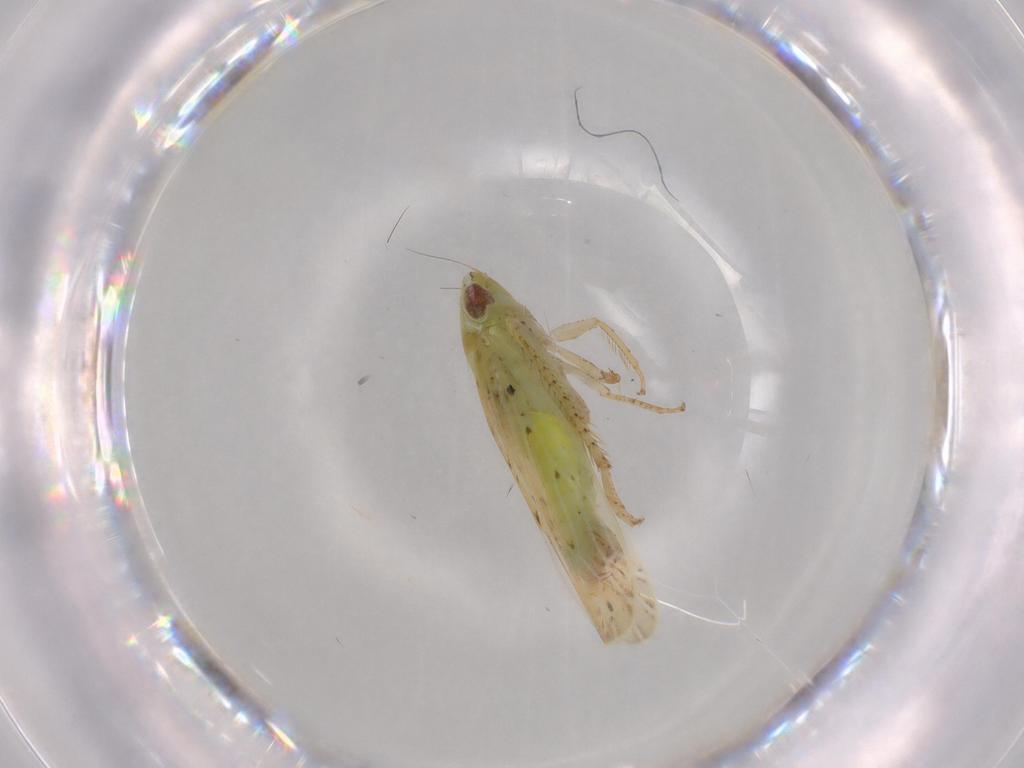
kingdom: Animalia
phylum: Arthropoda
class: Insecta
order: Hemiptera
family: Cicadellidae
